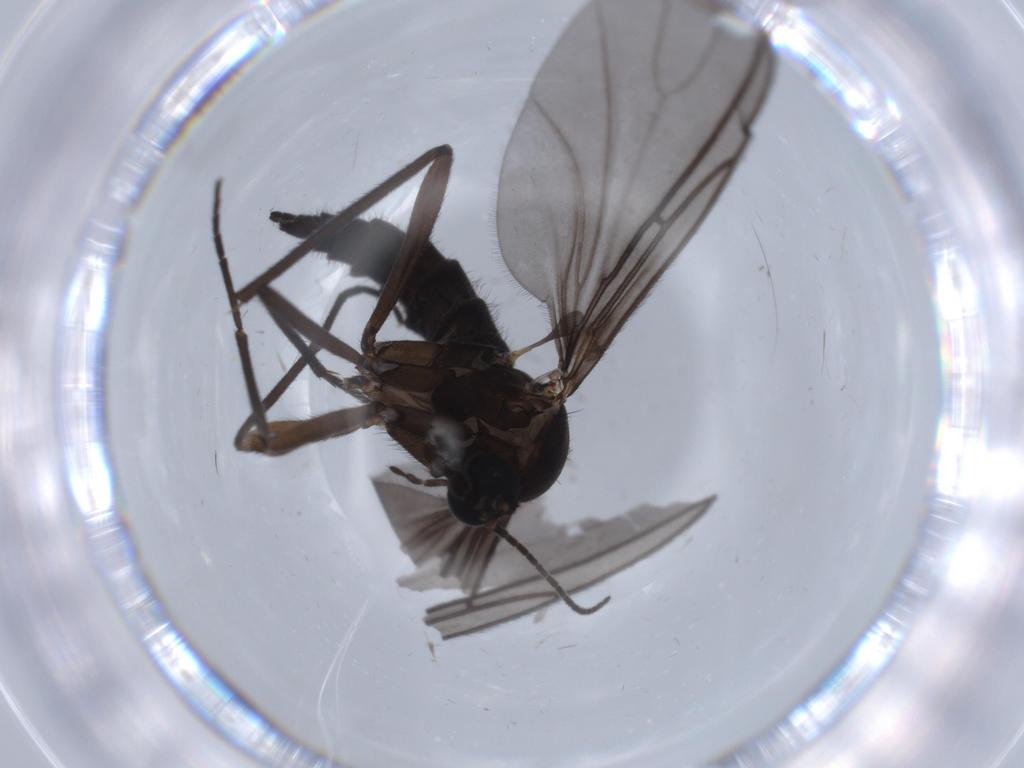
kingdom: Animalia
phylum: Arthropoda
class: Insecta
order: Diptera
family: Sciaridae
